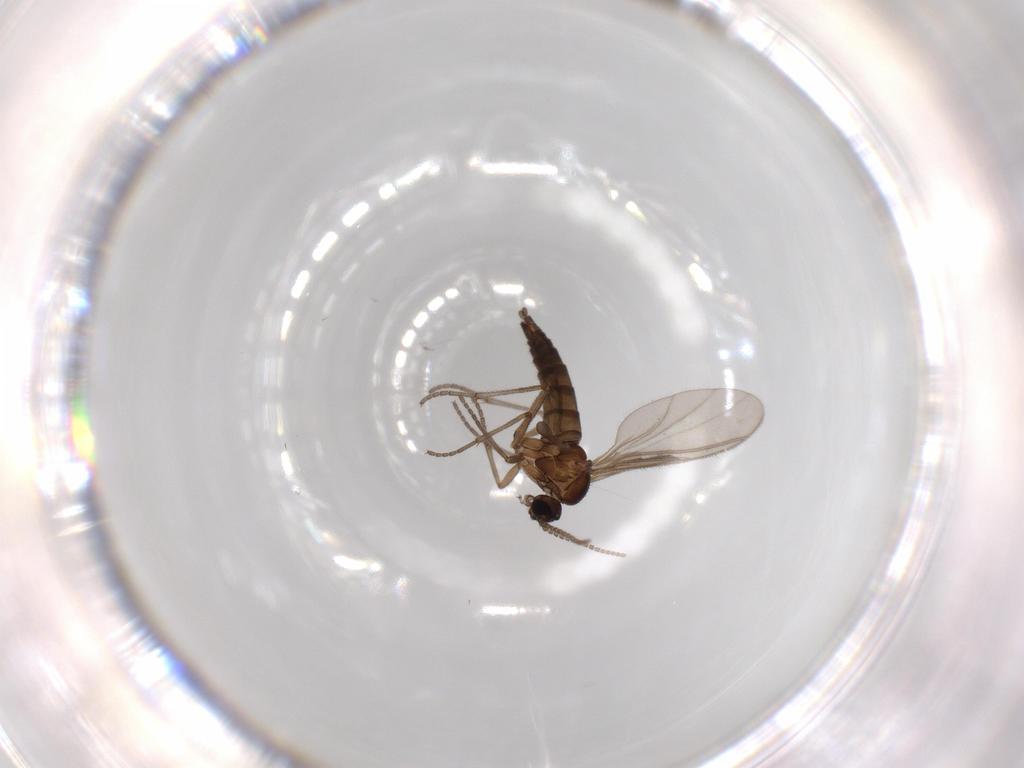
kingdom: Animalia
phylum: Arthropoda
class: Insecta
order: Diptera
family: Sciaridae
